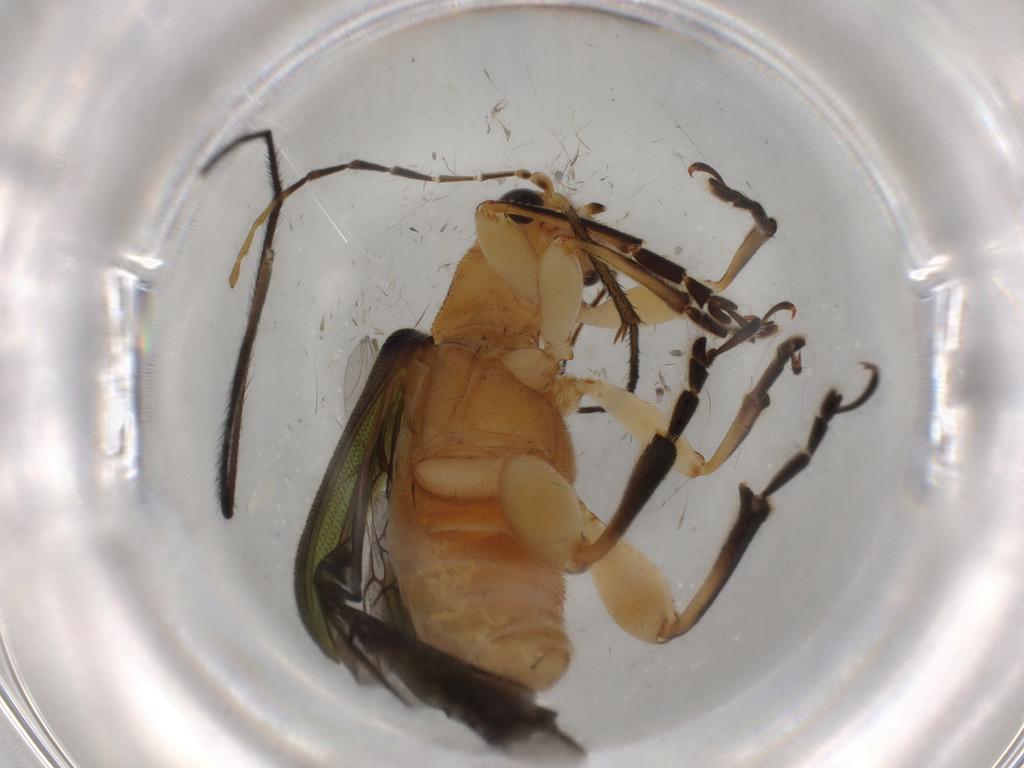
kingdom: Animalia
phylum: Arthropoda
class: Insecta
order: Coleoptera
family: Chrysomelidae
